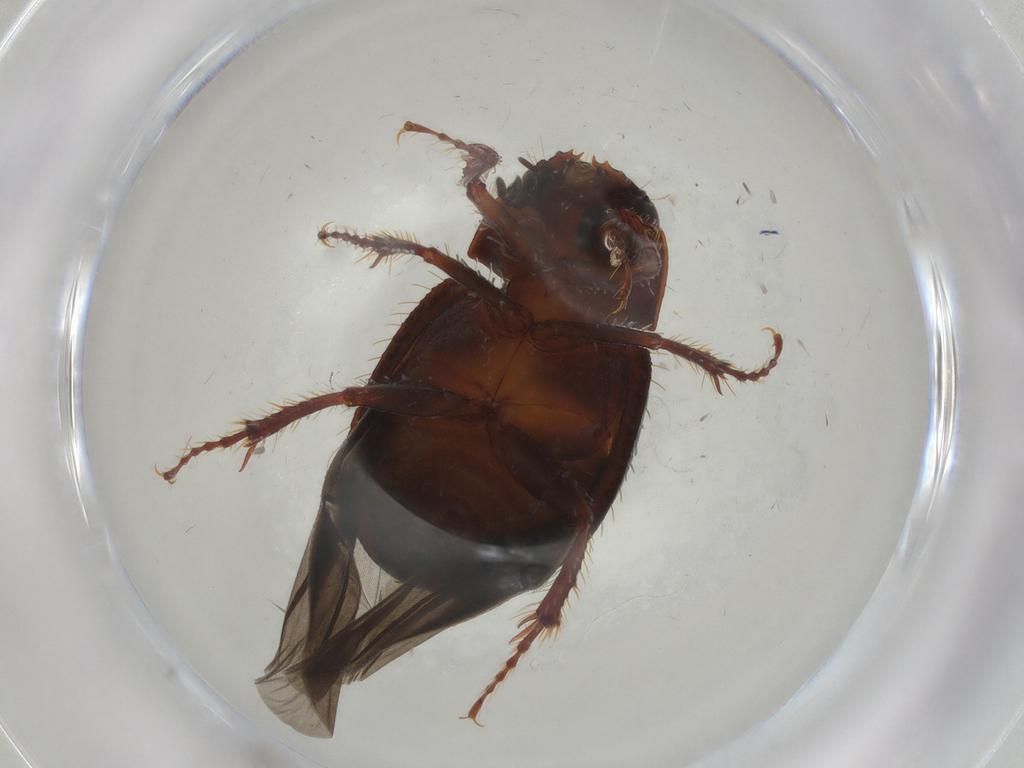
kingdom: Animalia
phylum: Arthropoda
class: Insecta
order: Coleoptera
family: Hybosoridae
